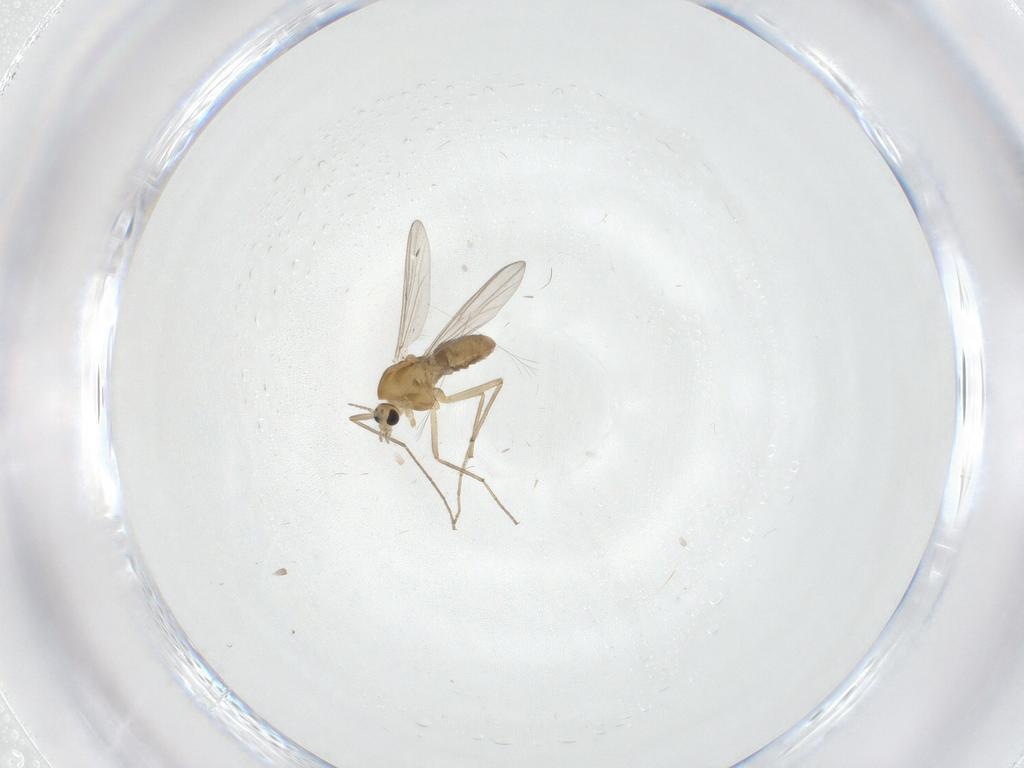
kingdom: Animalia
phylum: Arthropoda
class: Insecta
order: Diptera
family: Chironomidae
